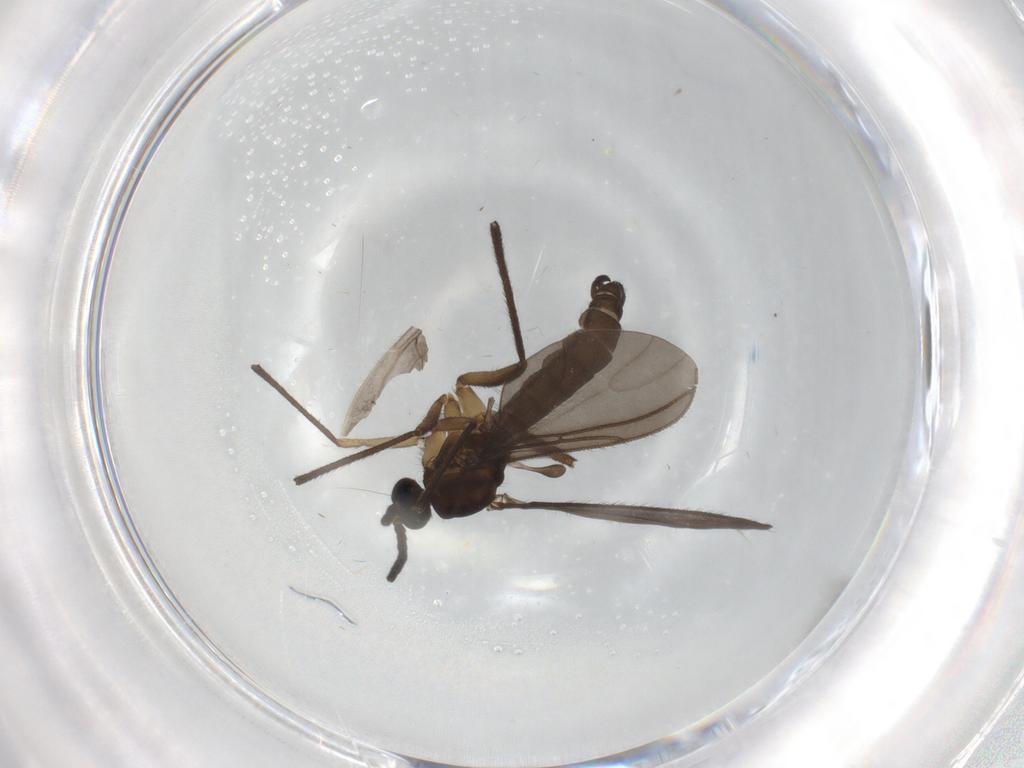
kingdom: Animalia
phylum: Arthropoda
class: Insecta
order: Diptera
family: Sciaridae
